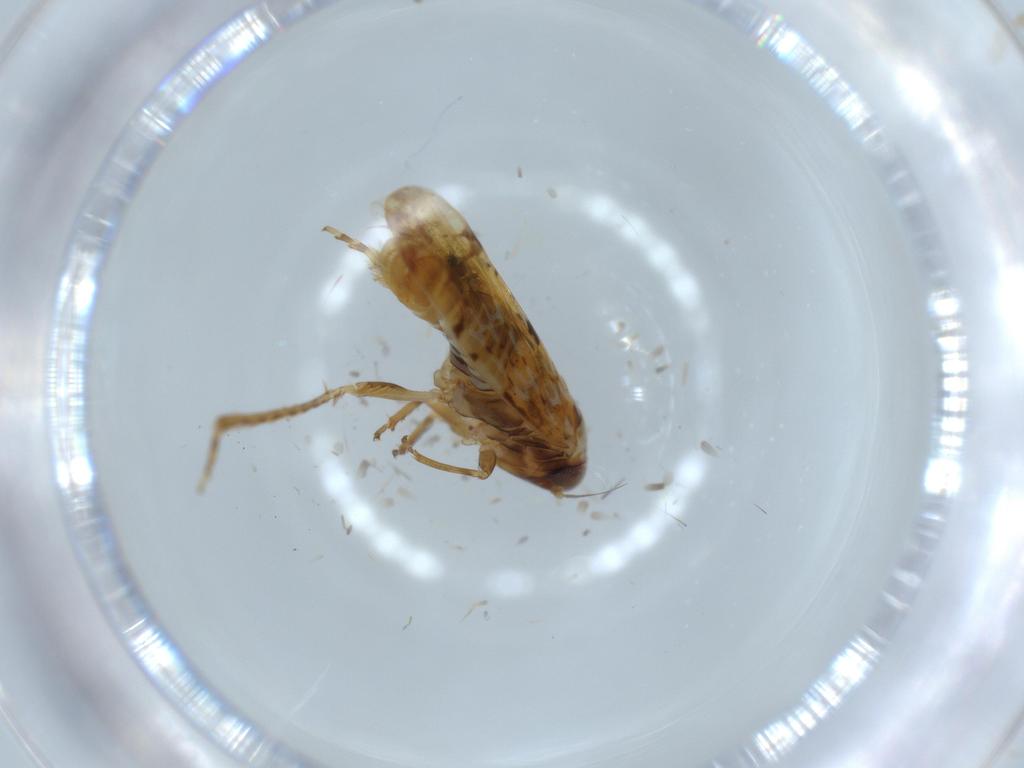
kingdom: Animalia
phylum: Arthropoda
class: Insecta
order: Hemiptera
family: Cicadellidae
